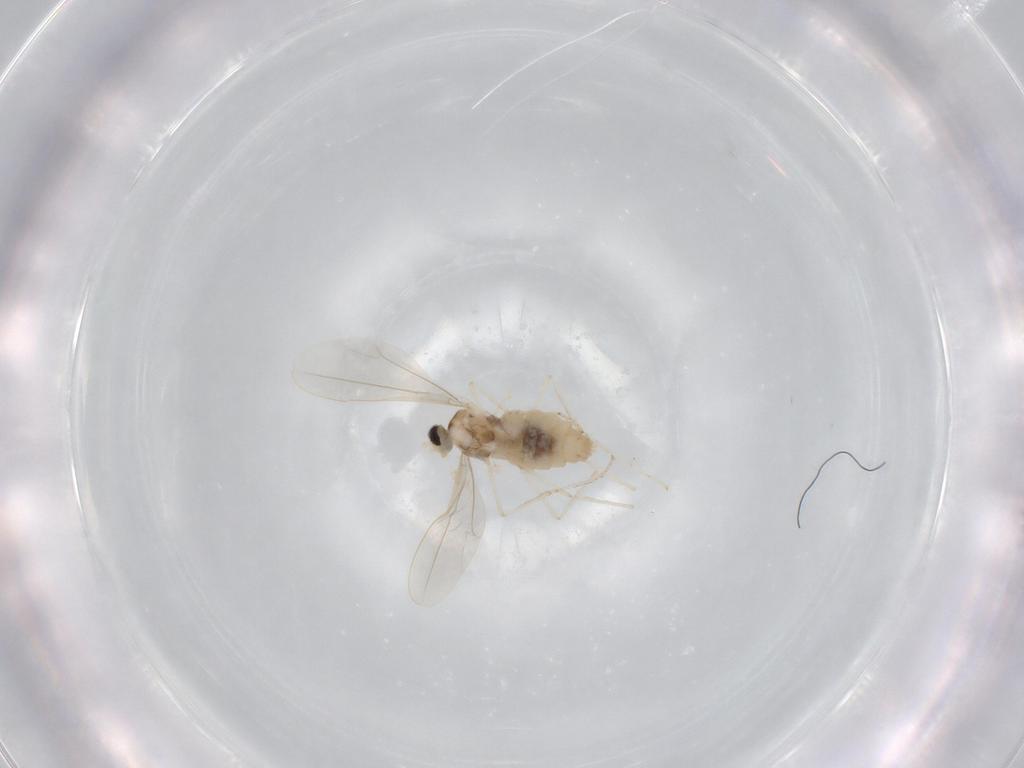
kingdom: Animalia
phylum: Arthropoda
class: Insecta
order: Diptera
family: Cecidomyiidae
